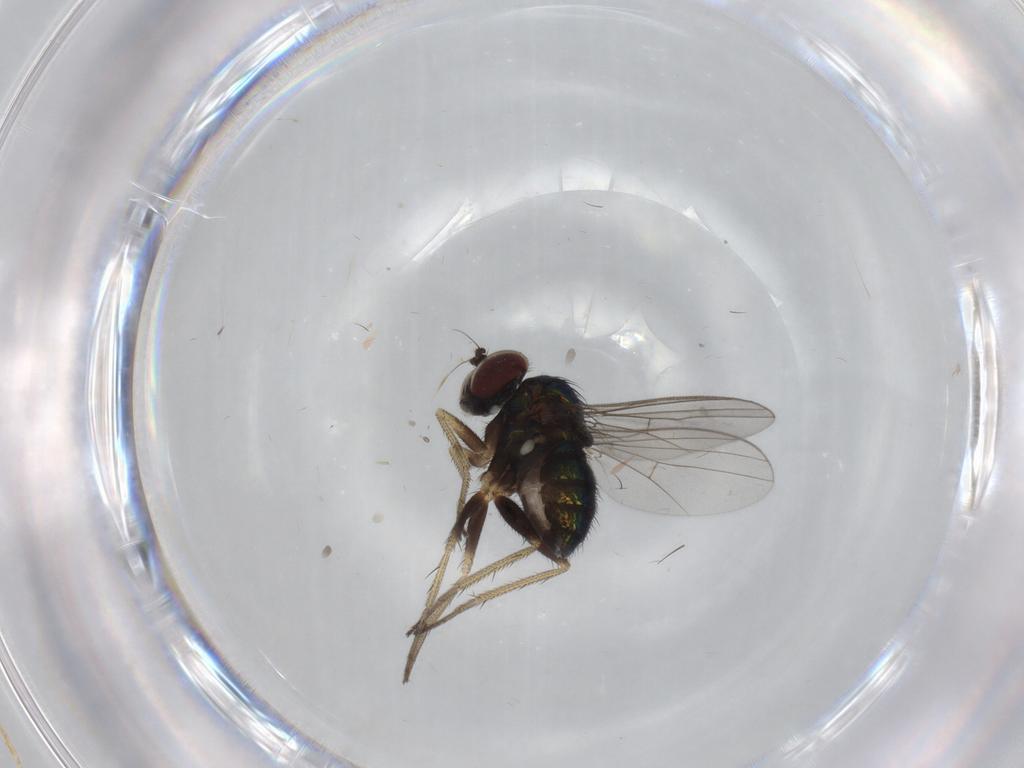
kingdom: Animalia
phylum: Arthropoda
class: Insecta
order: Diptera
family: Dolichopodidae
